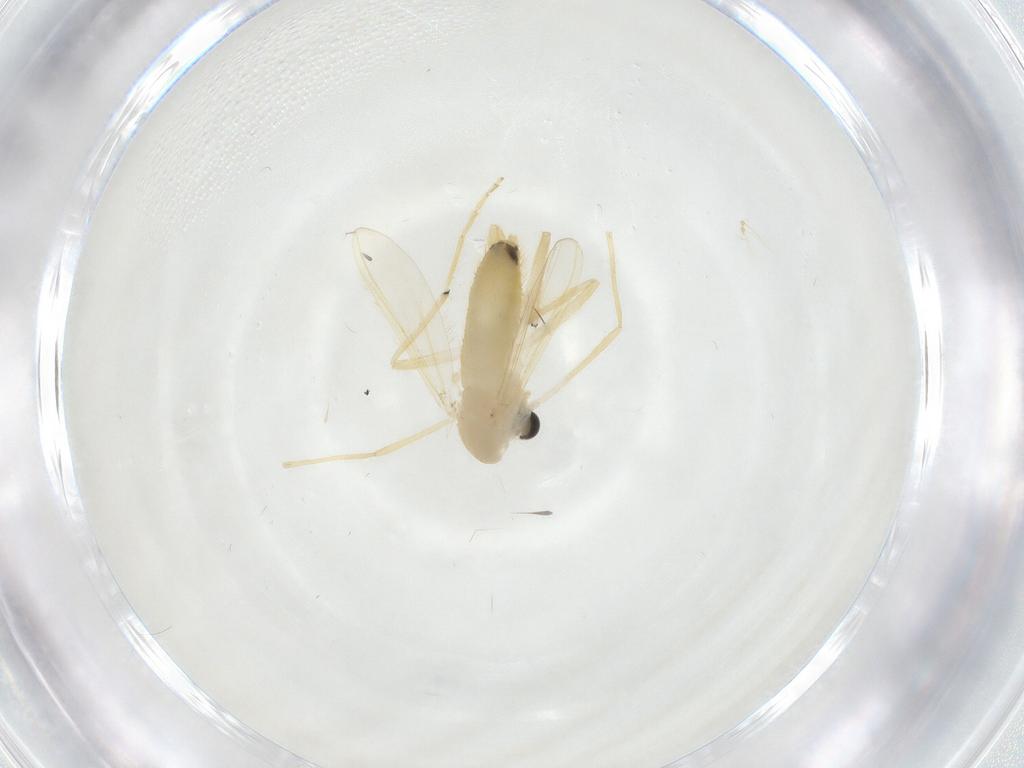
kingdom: Animalia
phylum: Arthropoda
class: Insecta
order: Diptera
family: Chironomidae
